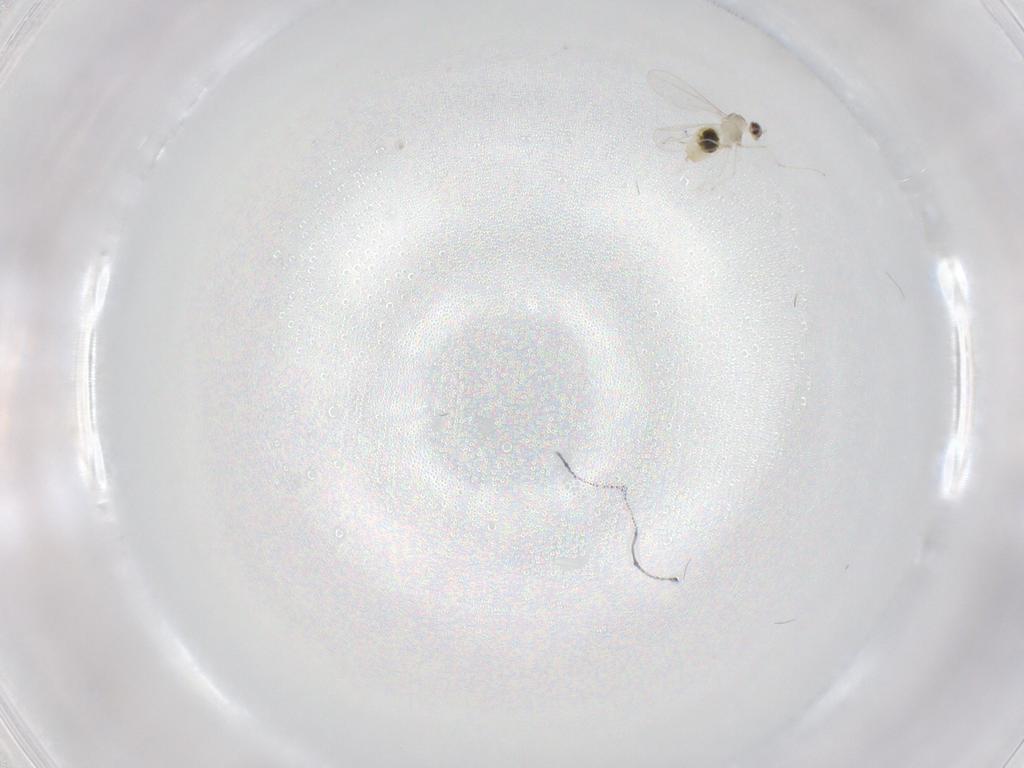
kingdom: Animalia
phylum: Arthropoda
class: Insecta
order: Diptera
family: Cecidomyiidae
